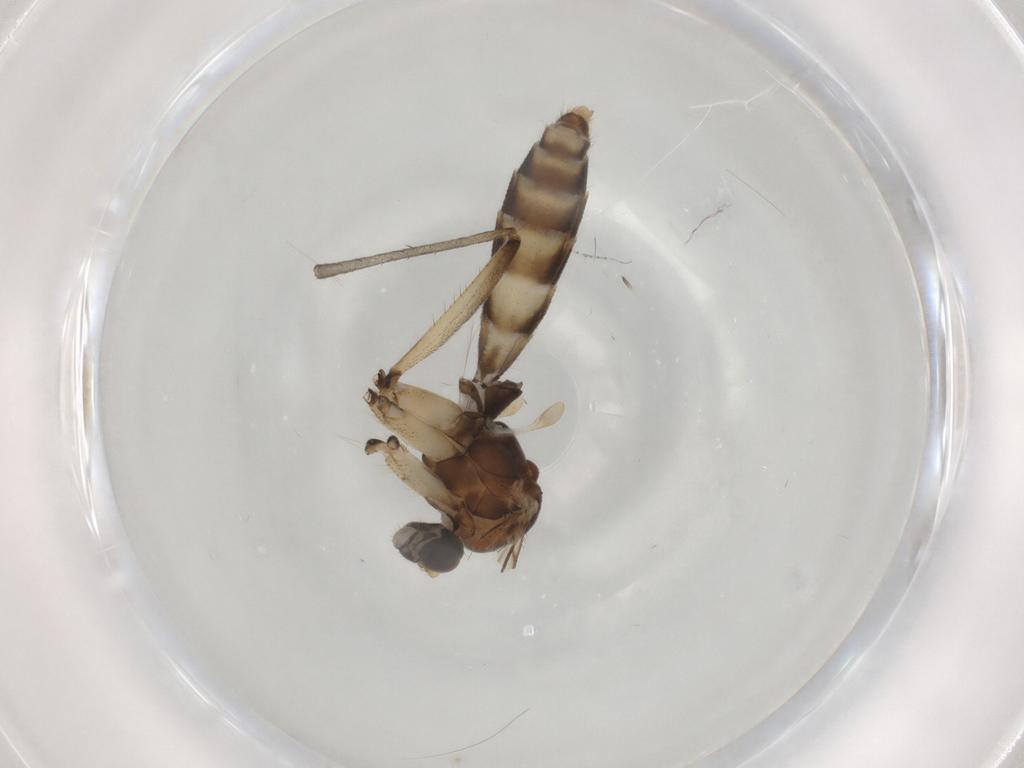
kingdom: Animalia
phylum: Arthropoda
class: Insecta
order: Diptera
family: Mycetophilidae
